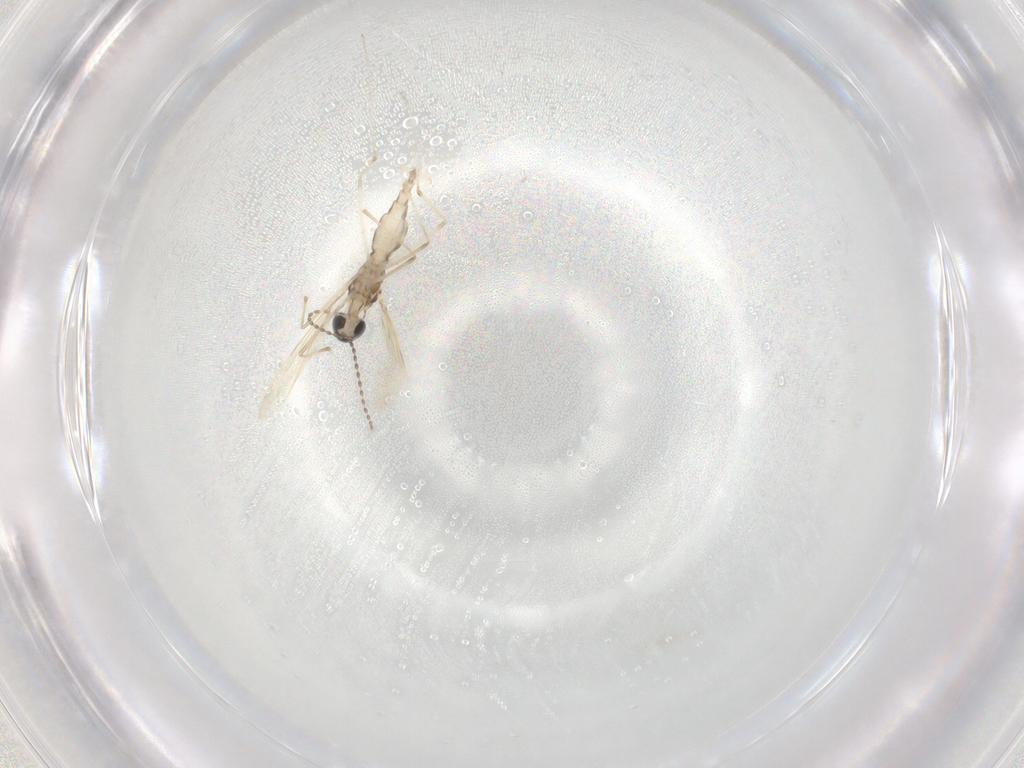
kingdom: Animalia
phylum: Arthropoda
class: Insecta
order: Diptera
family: Cecidomyiidae
